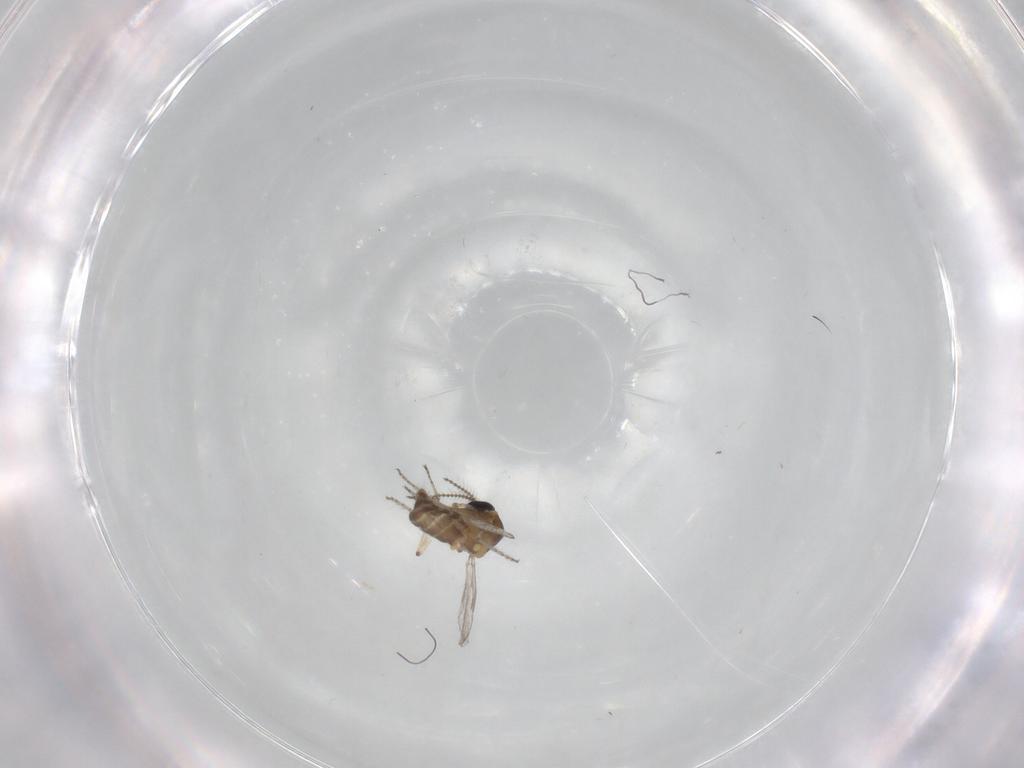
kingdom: Animalia
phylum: Arthropoda
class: Insecta
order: Diptera
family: Ceratopogonidae
